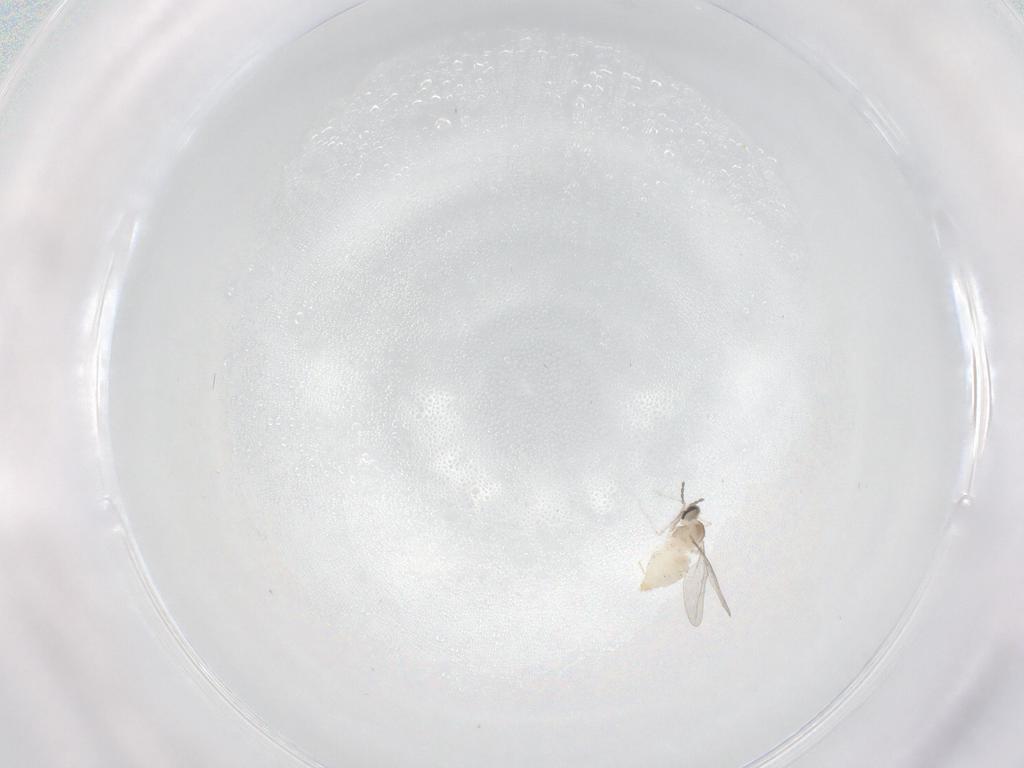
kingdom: Animalia
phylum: Arthropoda
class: Insecta
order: Diptera
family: Cecidomyiidae
